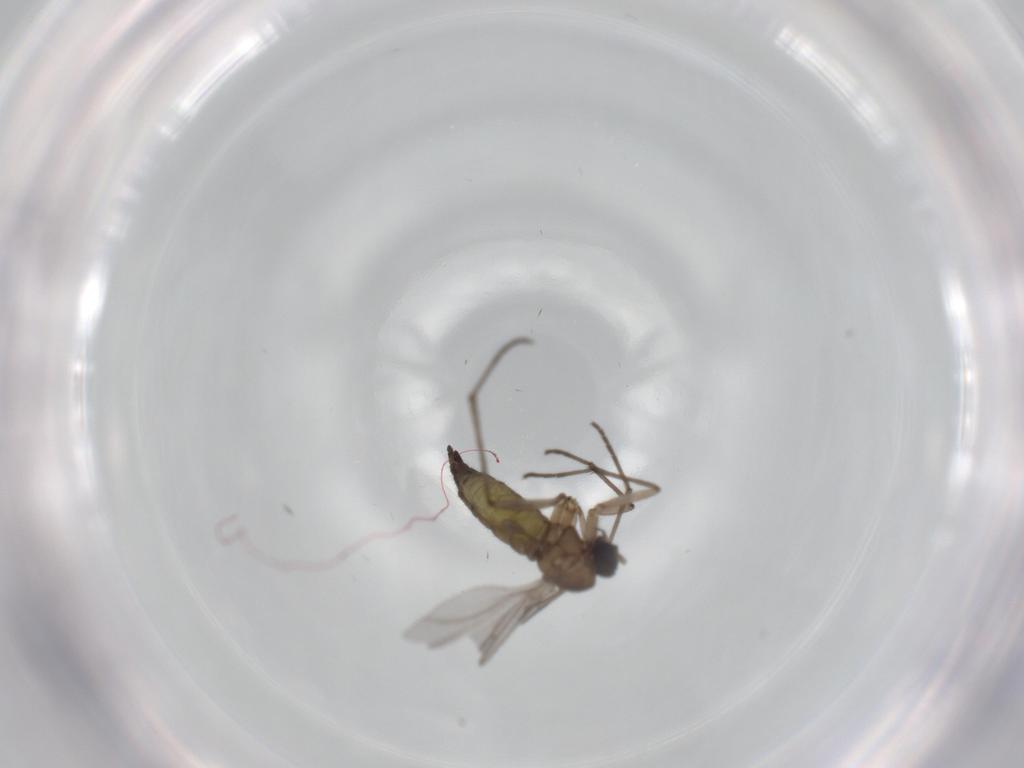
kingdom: Animalia
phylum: Arthropoda
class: Insecta
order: Diptera
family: Sciaridae
